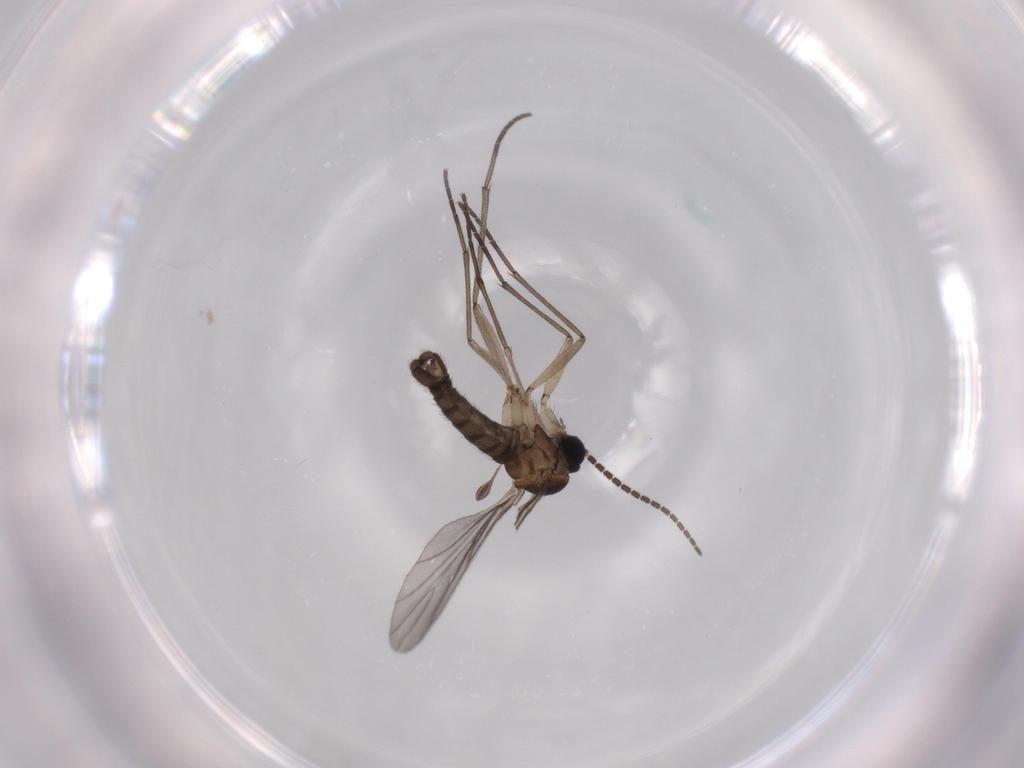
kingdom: Animalia
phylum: Arthropoda
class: Insecta
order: Diptera
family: Sciaridae
